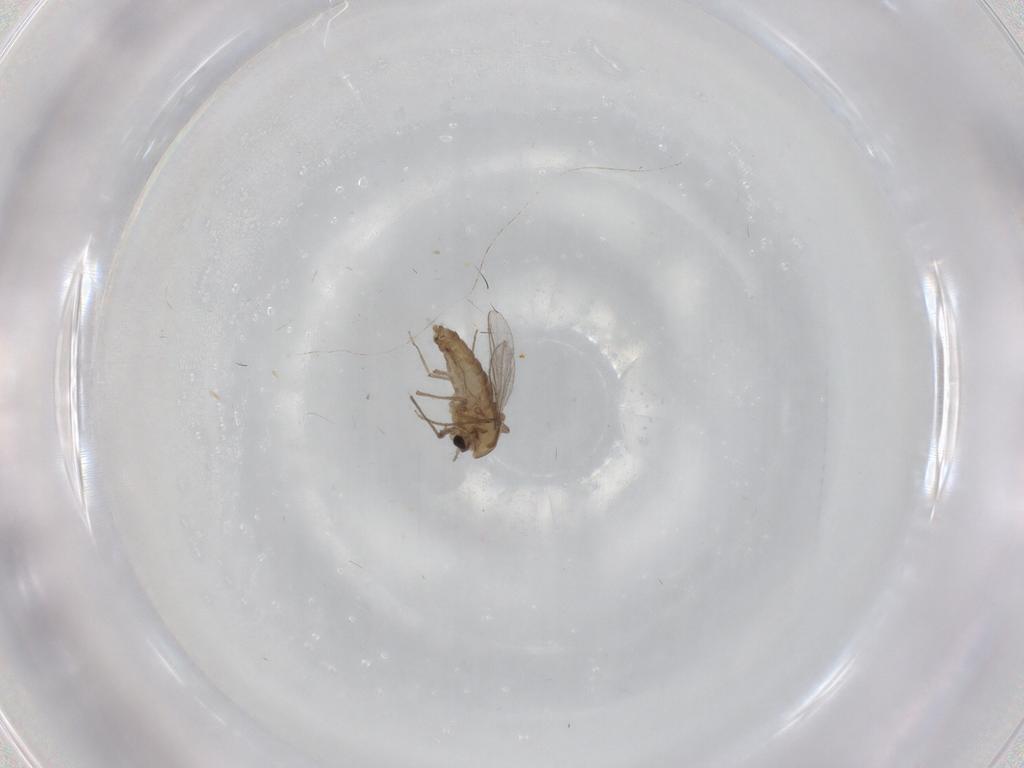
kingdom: Animalia
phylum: Arthropoda
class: Insecta
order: Diptera
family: Chironomidae
